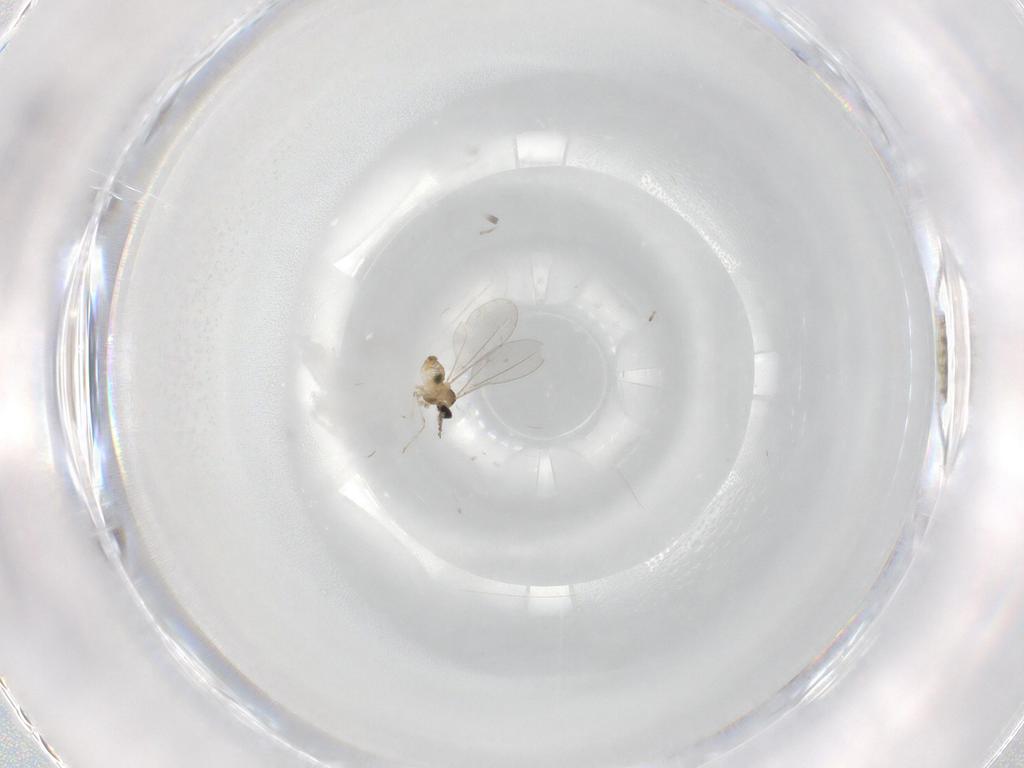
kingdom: Animalia
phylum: Arthropoda
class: Insecta
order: Diptera
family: Cecidomyiidae
